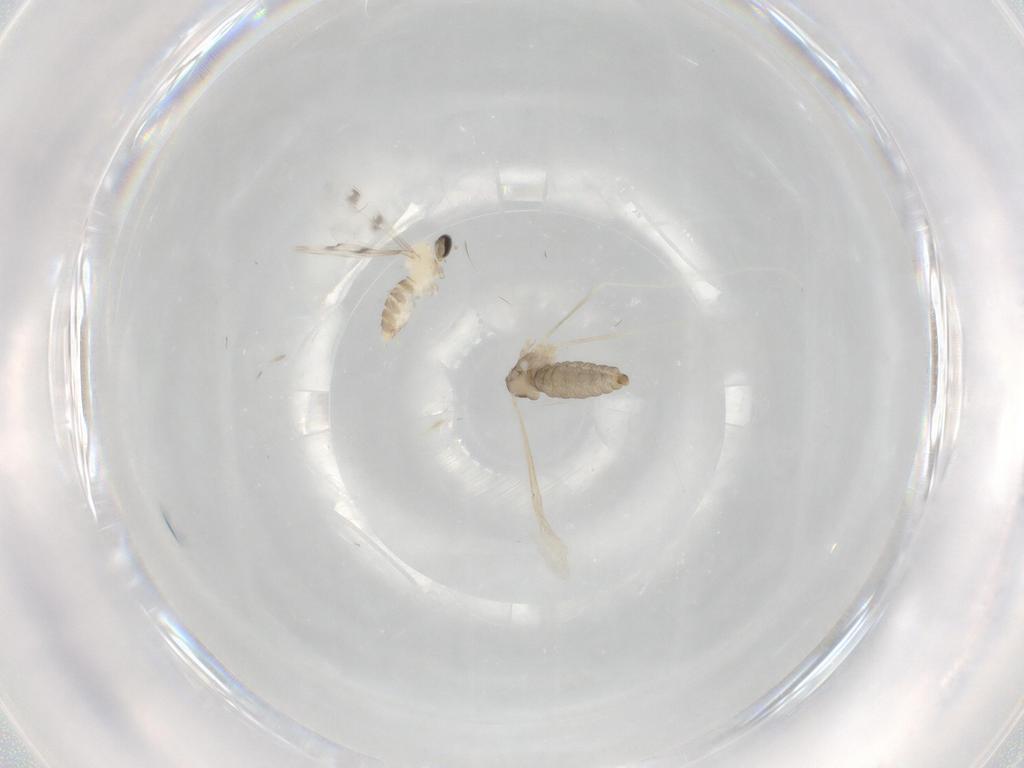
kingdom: Animalia
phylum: Arthropoda
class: Insecta
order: Diptera
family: Cecidomyiidae
